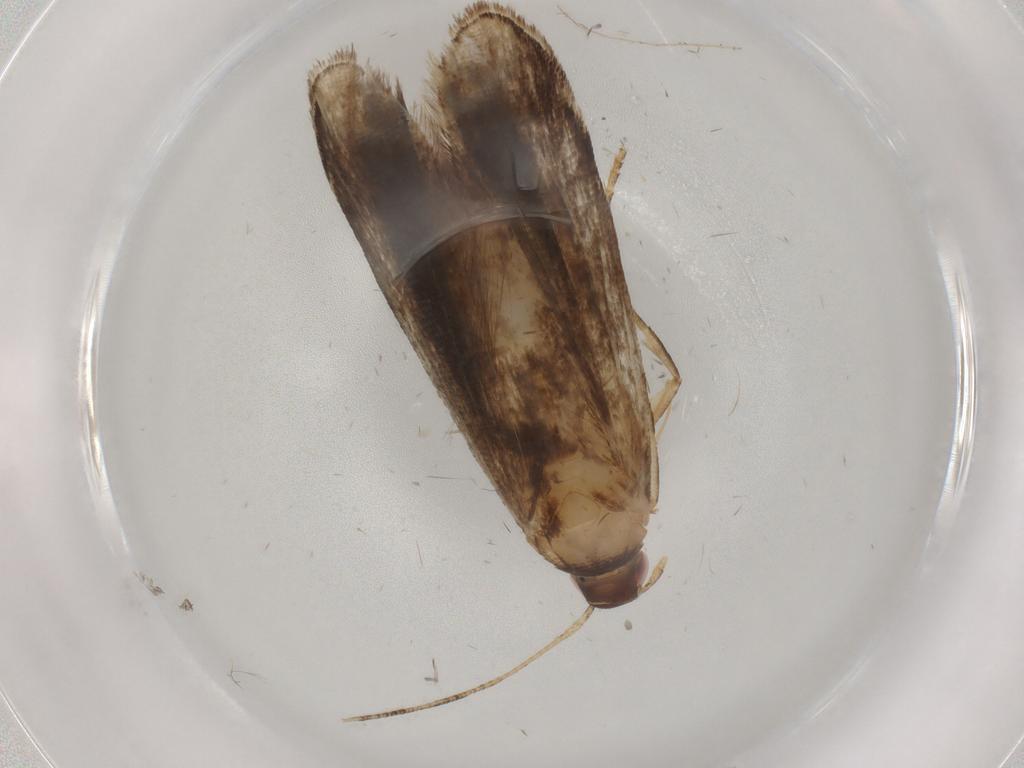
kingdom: Animalia
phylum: Arthropoda
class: Insecta
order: Lepidoptera
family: Gelechiidae
